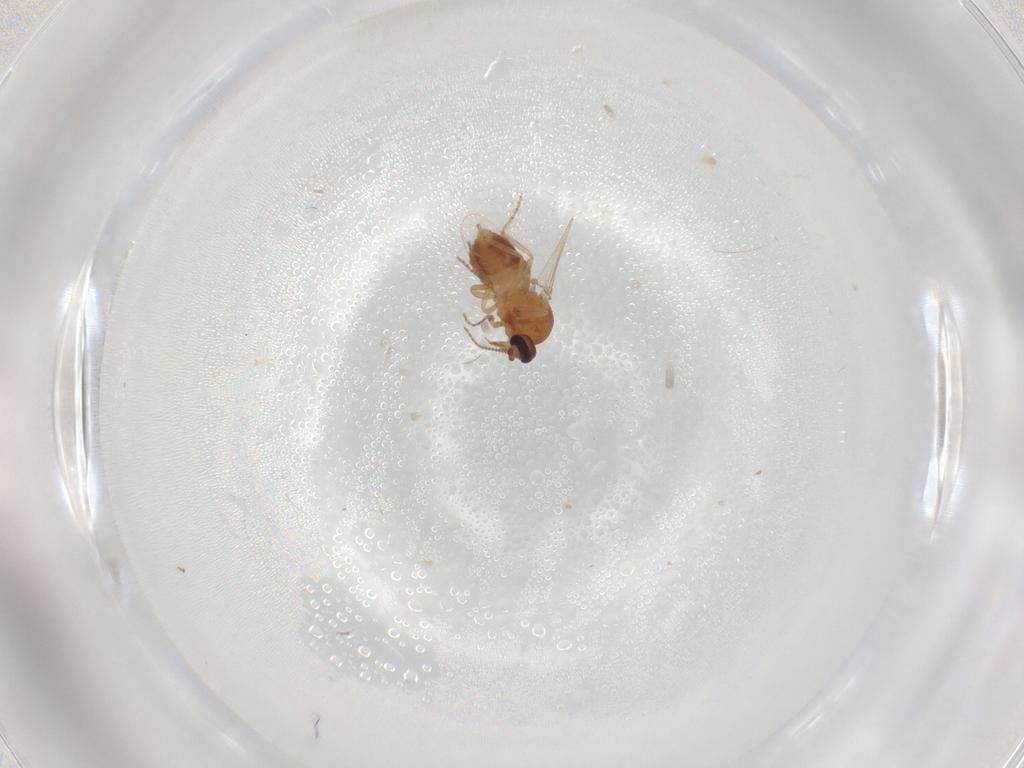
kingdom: Animalia
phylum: Arthropoda
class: Insecta
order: Diptera
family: Ceratopogonidae
